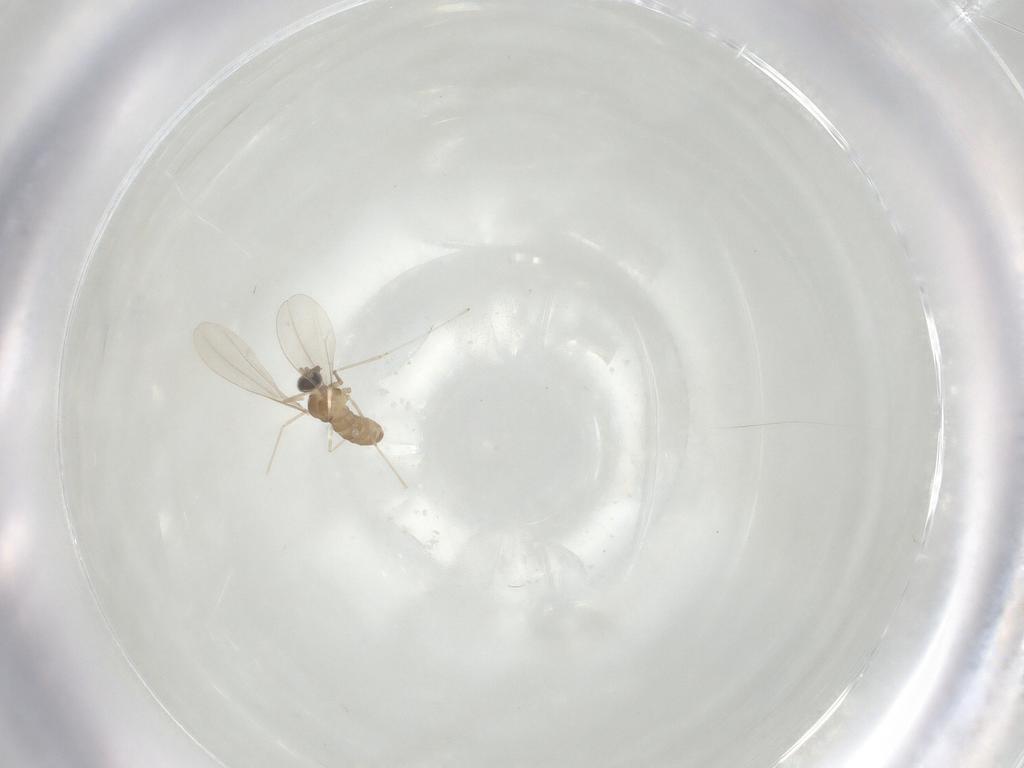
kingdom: Animalia
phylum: Arthropoda
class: Insecta
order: Diptera
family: Cecidomyiidae
